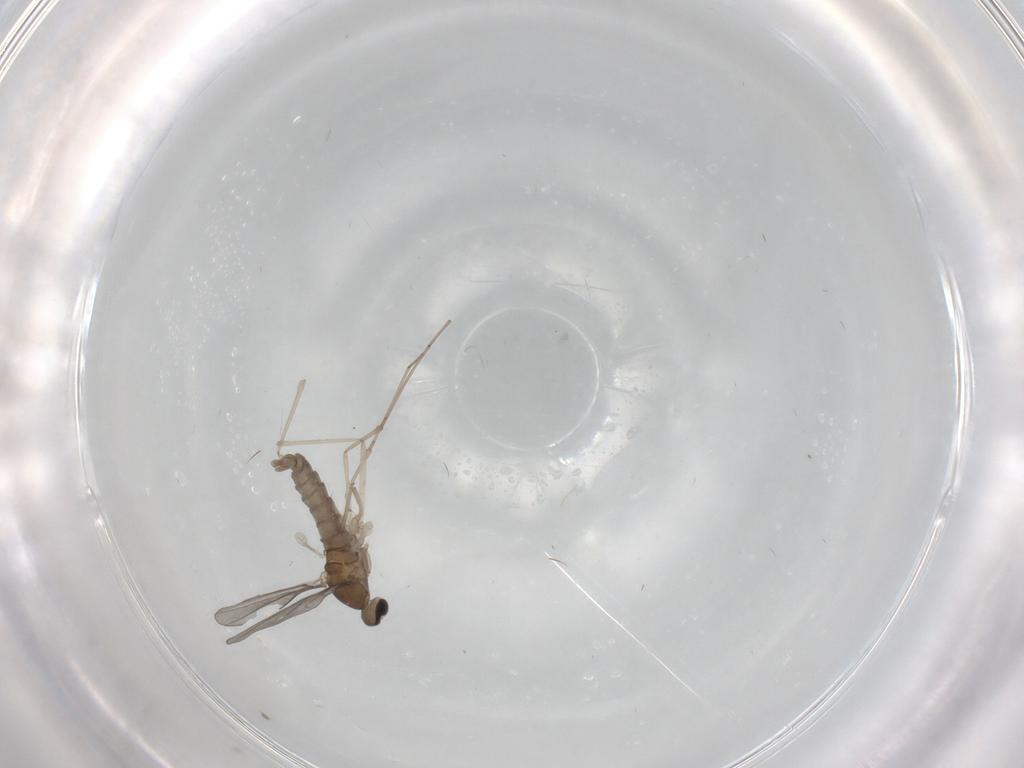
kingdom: Animalia
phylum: Arthropoda
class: Insecta
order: Diptera
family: Cecidomyiidae
